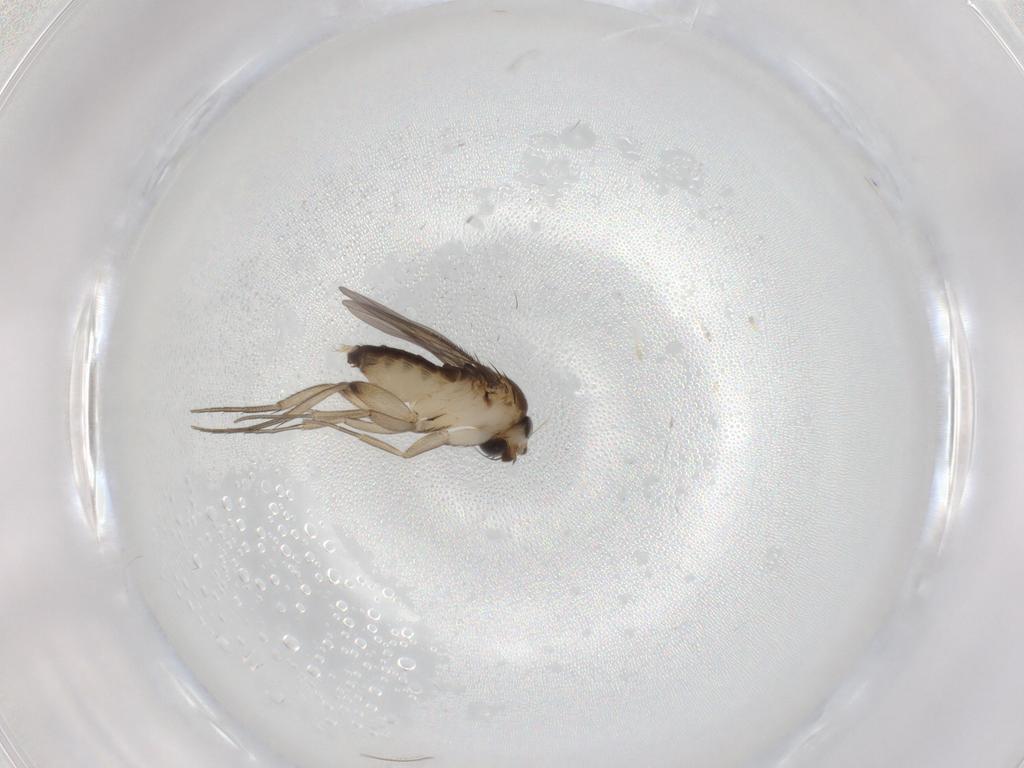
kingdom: Animalia
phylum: Arthropoda
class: Insecta
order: Diptera
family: Phoridae
